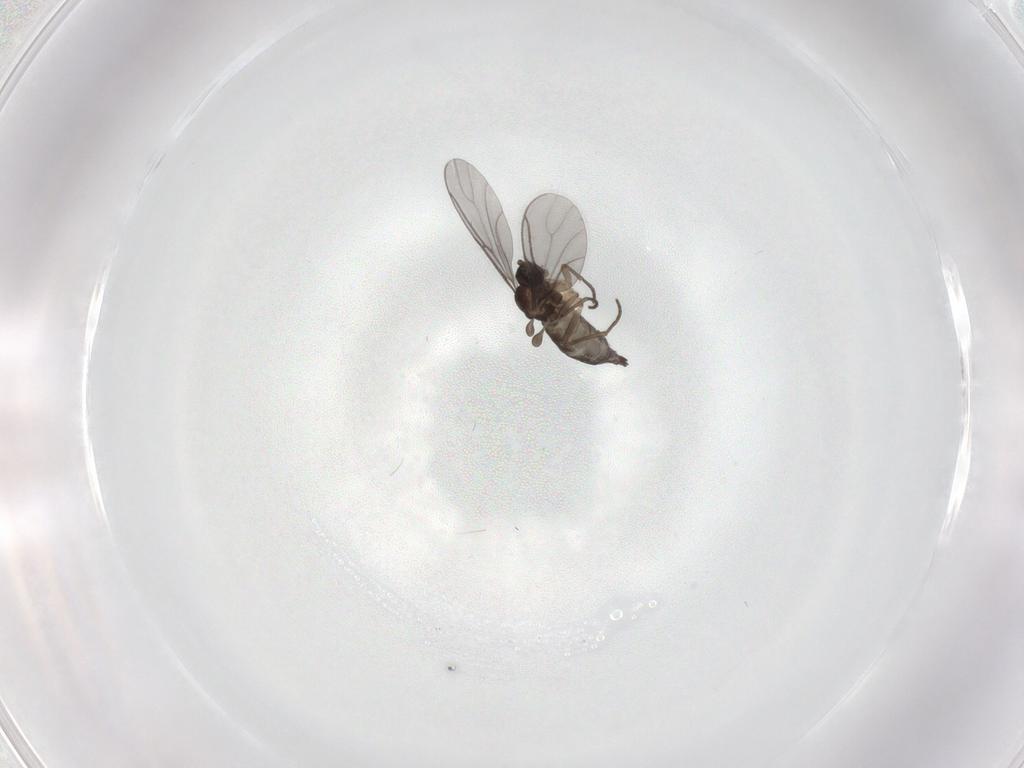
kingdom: Animalia
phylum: Arthropoda
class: Insecta
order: Diptera
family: Sciaridae
